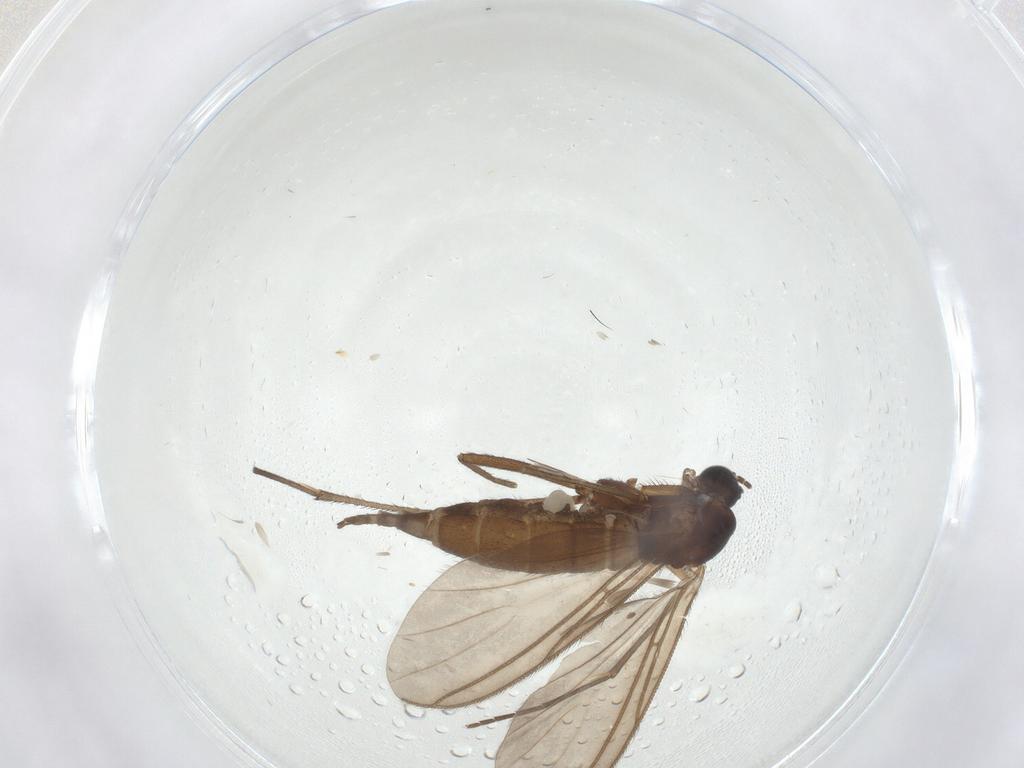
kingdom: Animalia
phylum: Arthropoda
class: Insecta
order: Diptera
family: Sciaridae
